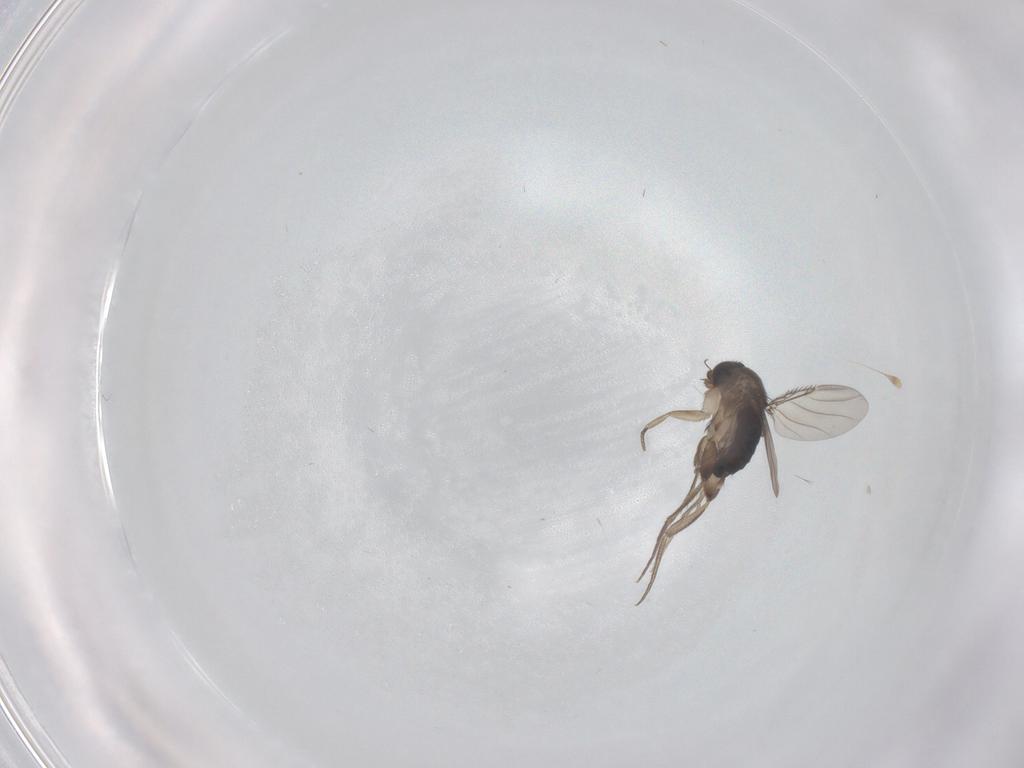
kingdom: Animalia
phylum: Arthropoda
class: Insecta
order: Diptera
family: Phoridae
